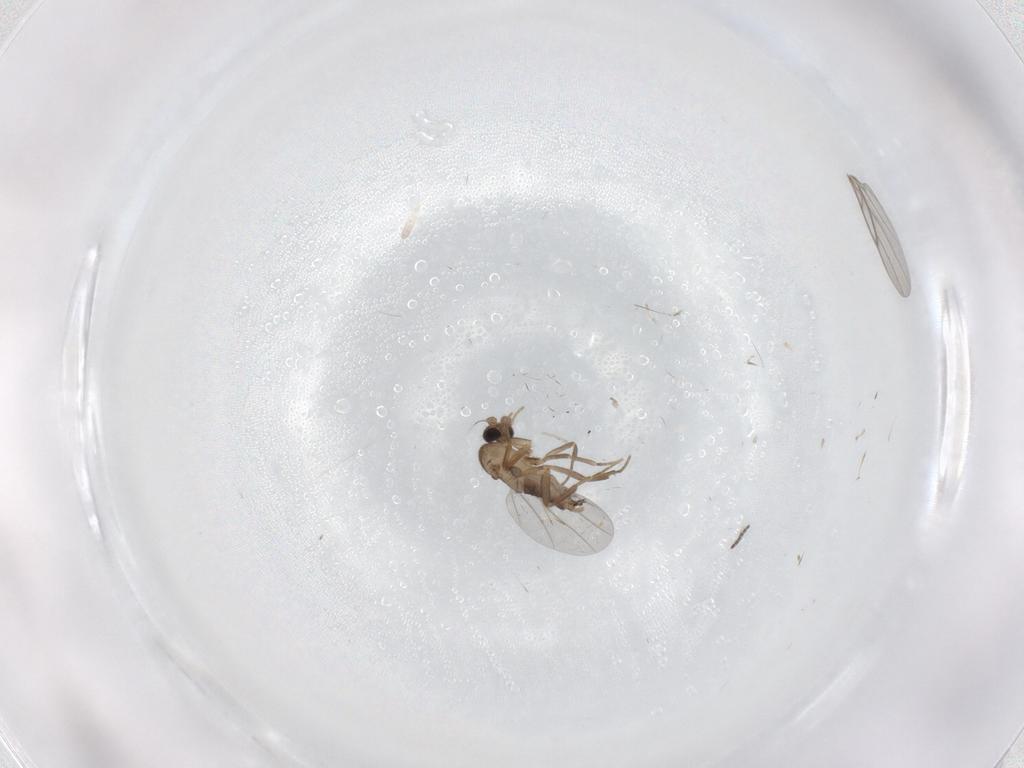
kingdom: Animalia
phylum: Arthropoda
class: Insecta
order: Diptera
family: Cecidomyiidae
